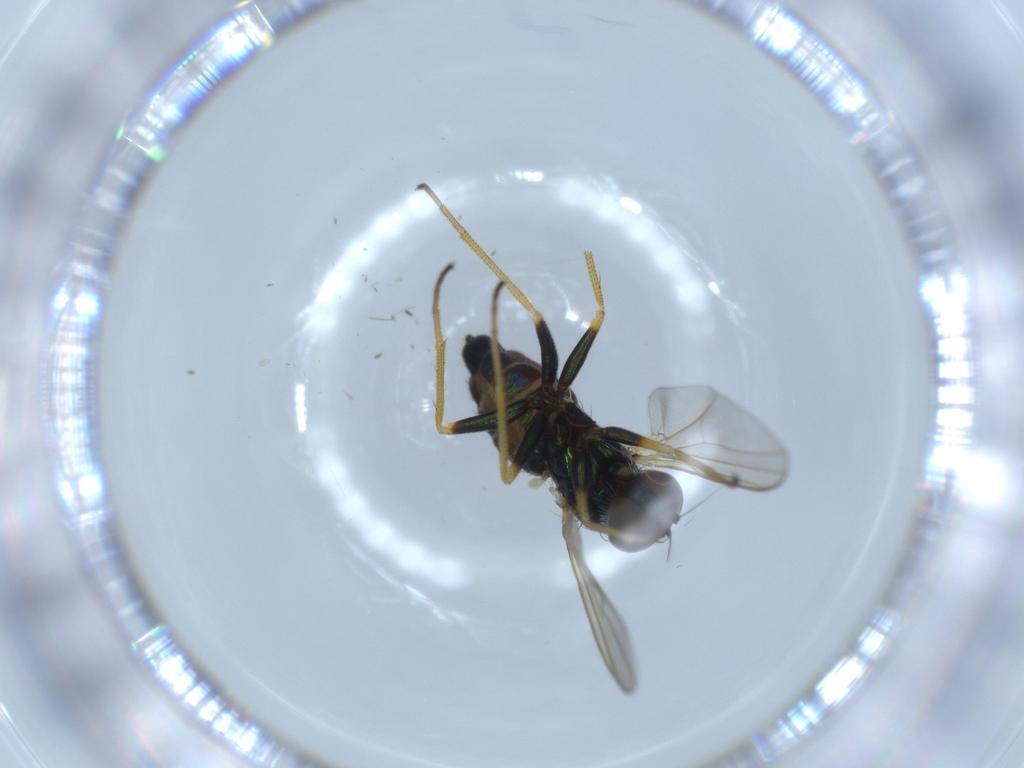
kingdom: Animalia
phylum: Arthropoda
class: Insecta
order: Diptera
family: Dolichopodidae
